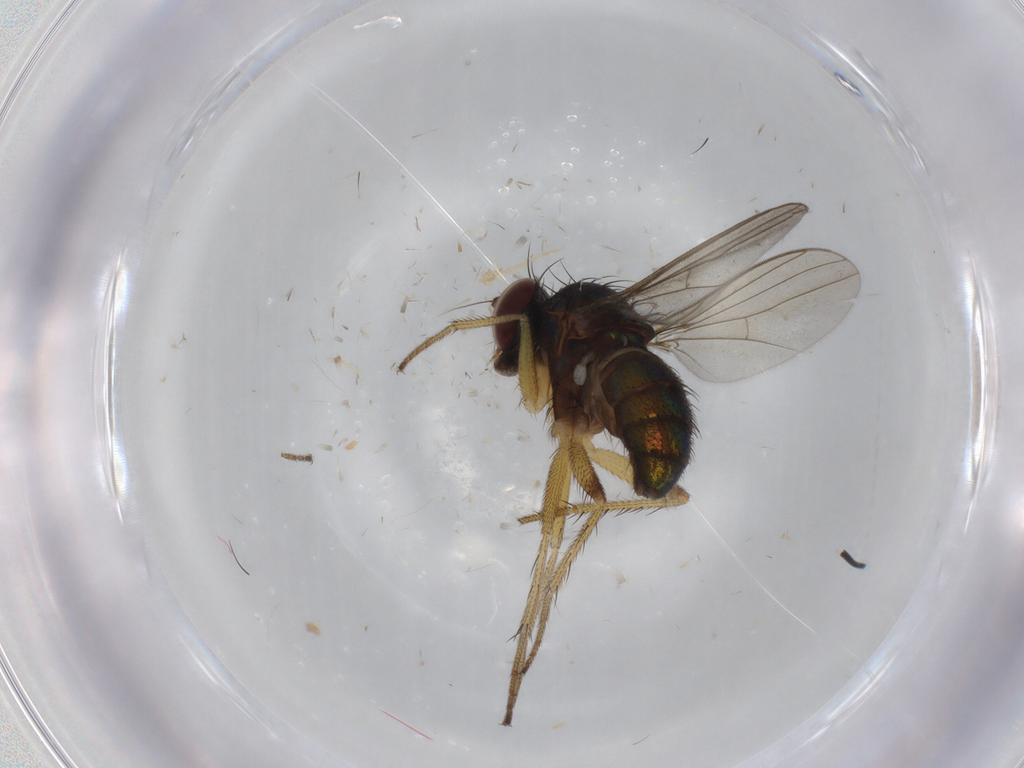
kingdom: Animalia
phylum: Arthropoda
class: Insecta
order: Diptera
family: Dolichopodidae
